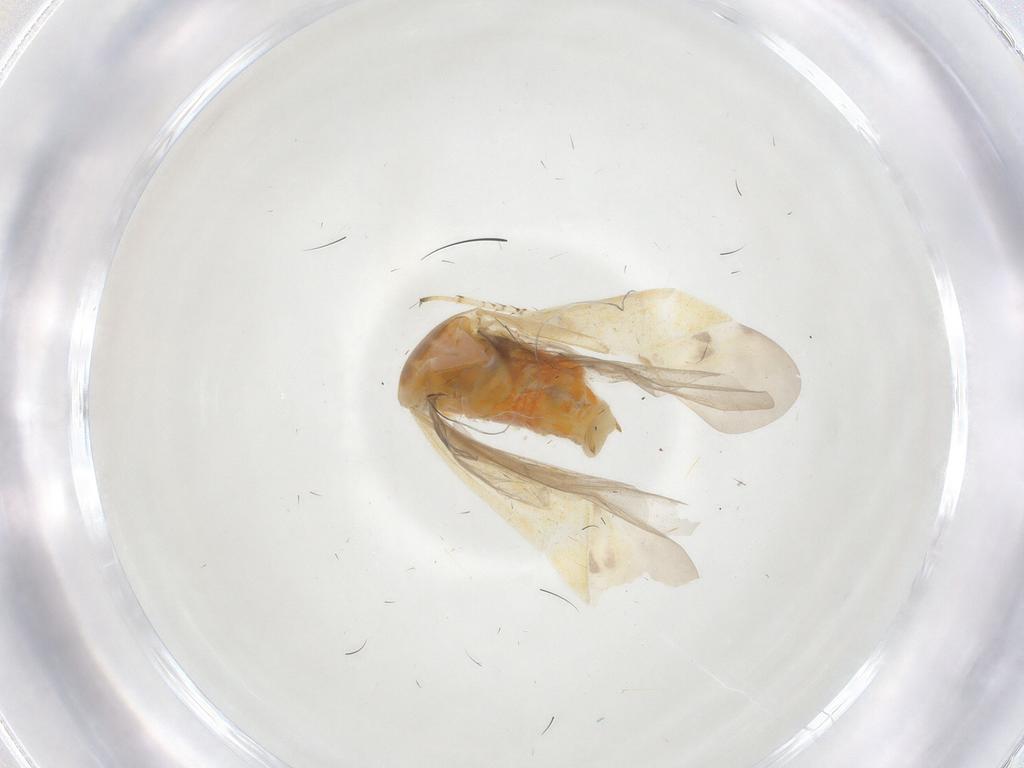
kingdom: Animalia
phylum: Arthropoda
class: Insecta
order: Hemiptera
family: Miridae
